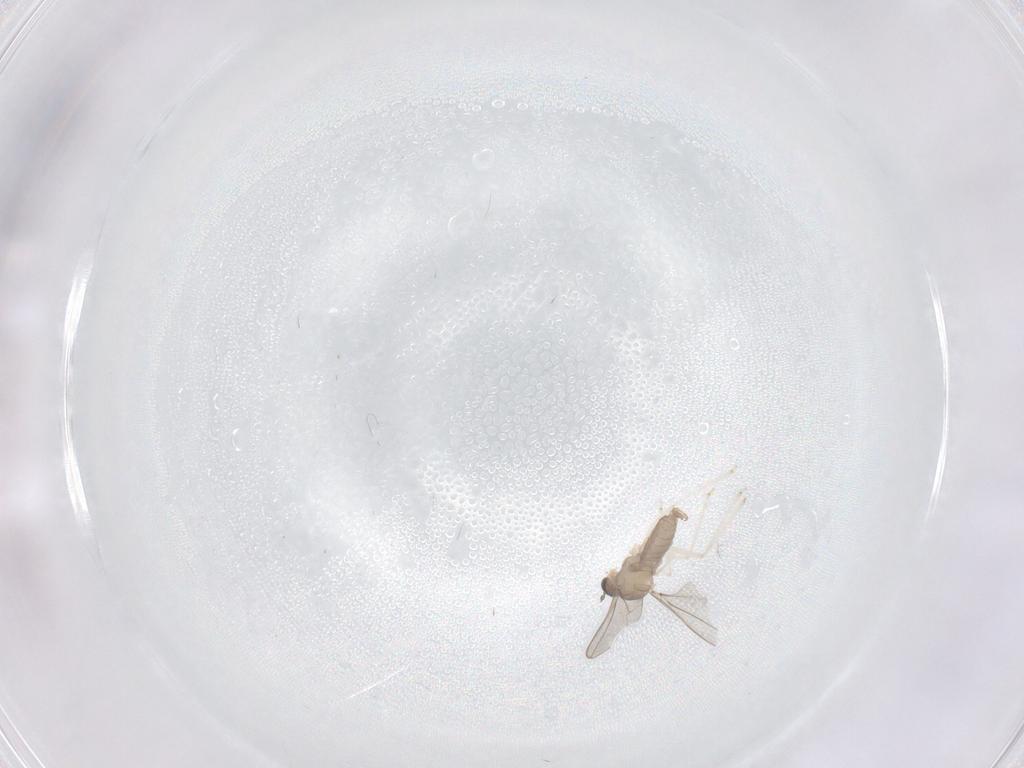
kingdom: Animalia
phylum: Arthropoda
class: Insecta
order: Diptera
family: Cecidomyiidae
